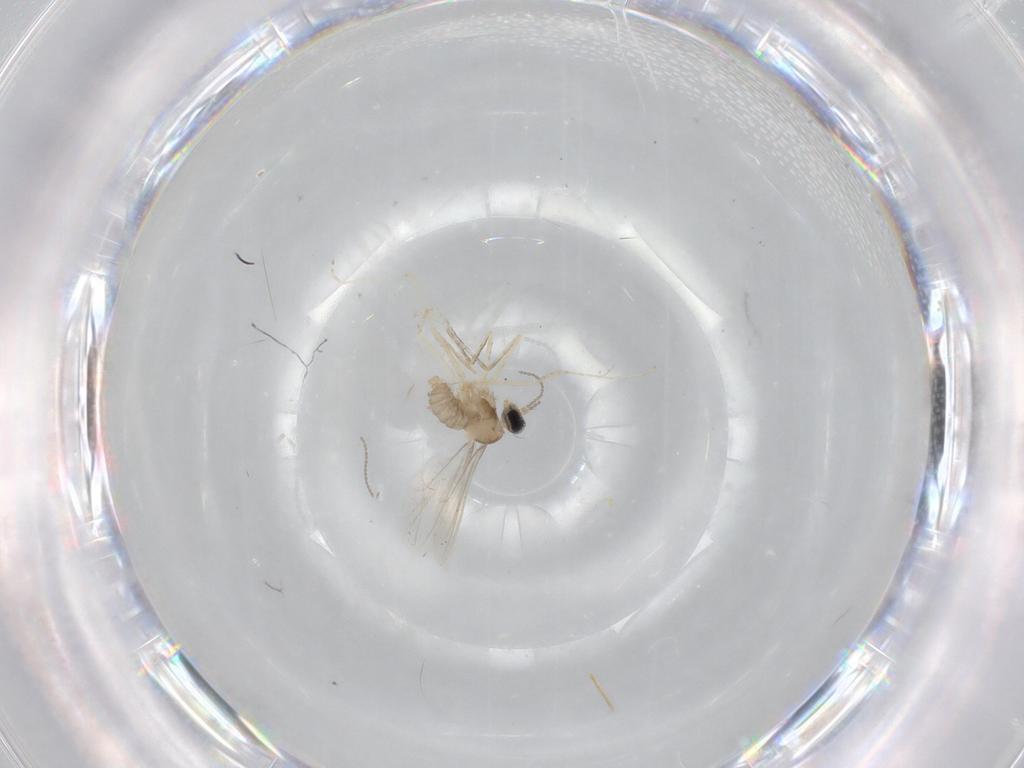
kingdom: Animalia
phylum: Arthropoda
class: Insecta
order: Diptera
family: Cecidomyiidae
